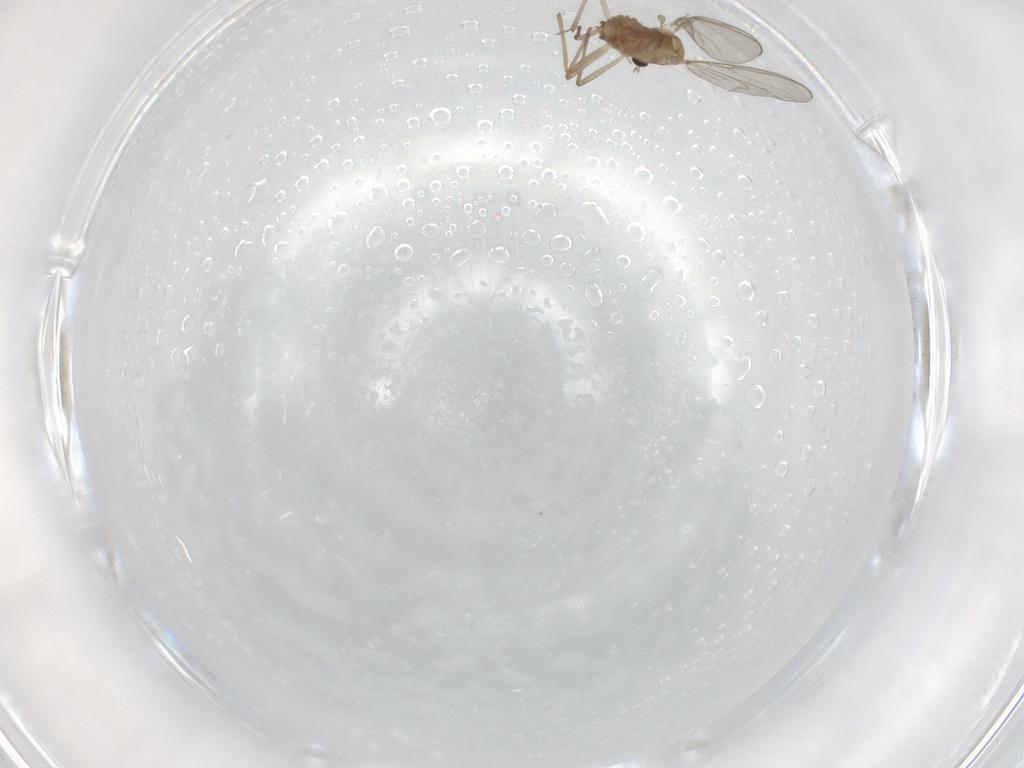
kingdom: Animalia
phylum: Arthropoda
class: Insecta
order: Diptera
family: Chironomidae
